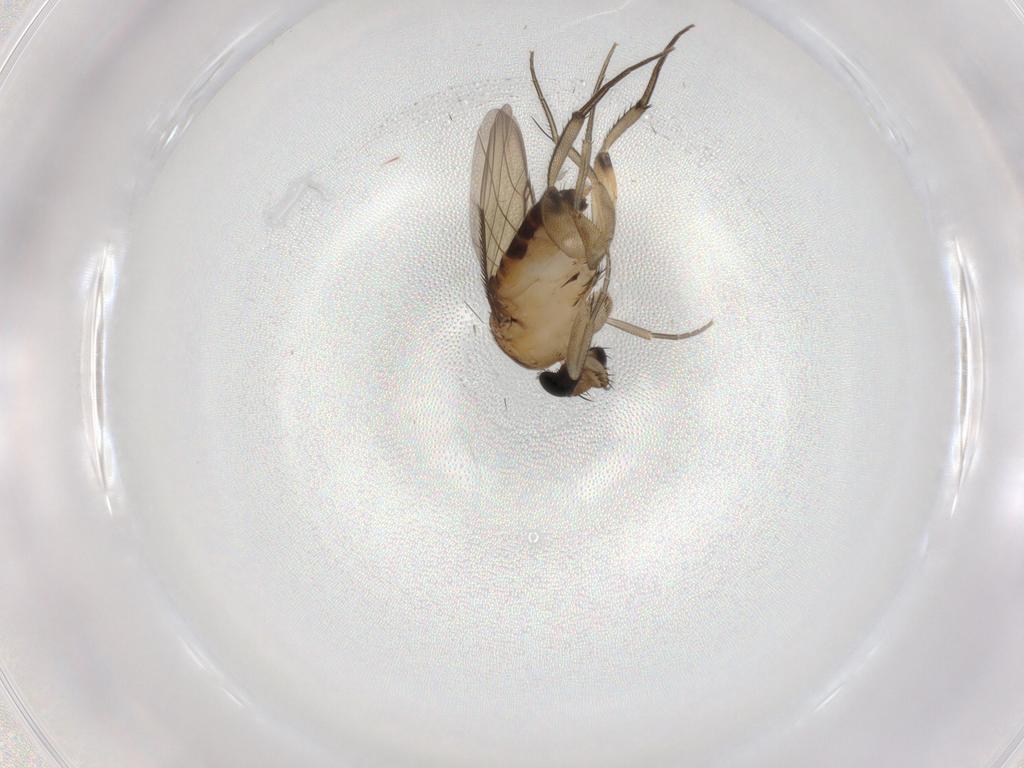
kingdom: Animalia
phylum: Arthropoda
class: Insecta
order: Diptera
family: Phoridae
